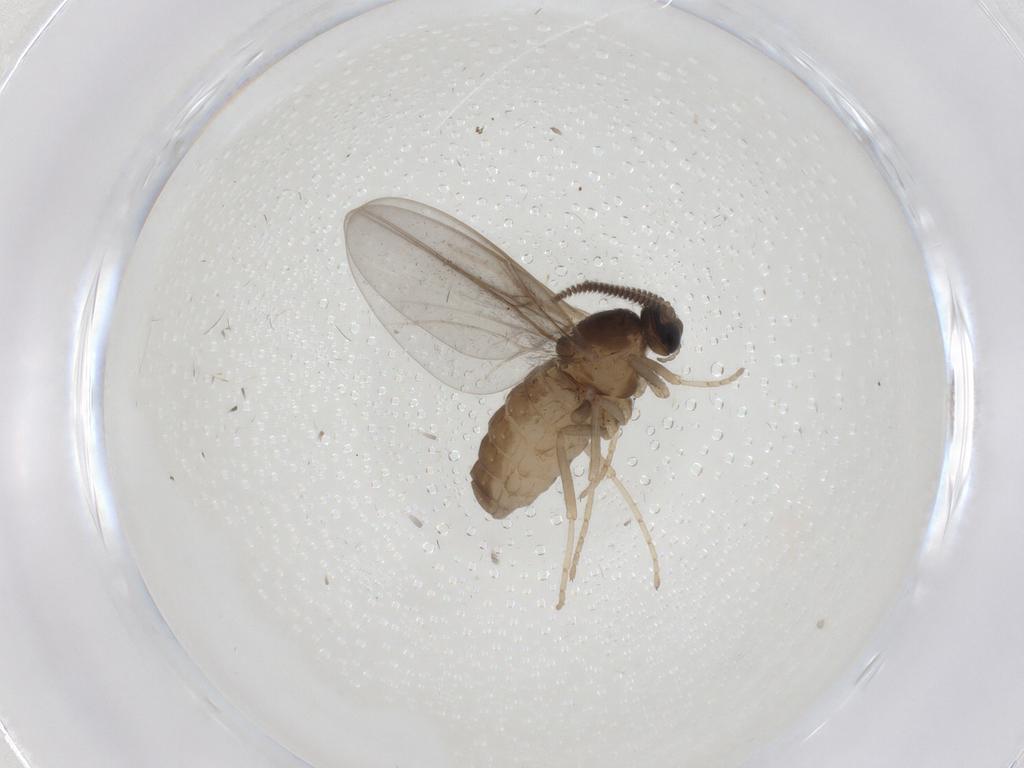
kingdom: Animalia
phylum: Arthropoda
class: Insecta
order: Diptera
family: Cecidomyiidae
